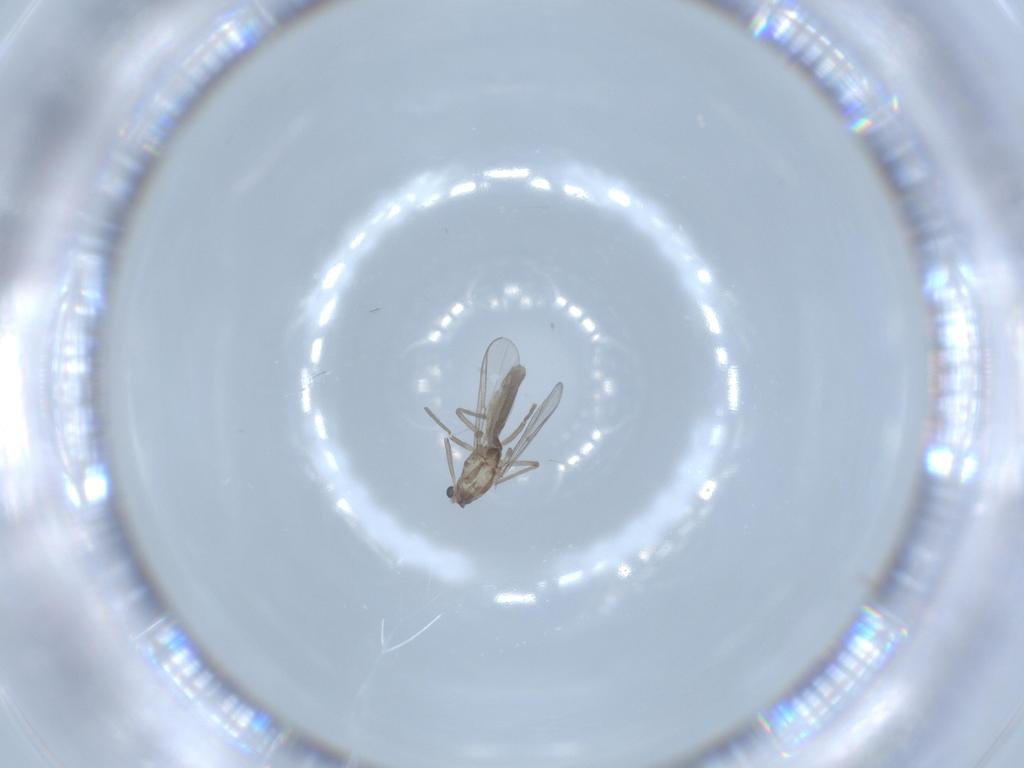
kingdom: Animalia
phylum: Arthropoda
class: Insecta
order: Diptera
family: Chironomidae
